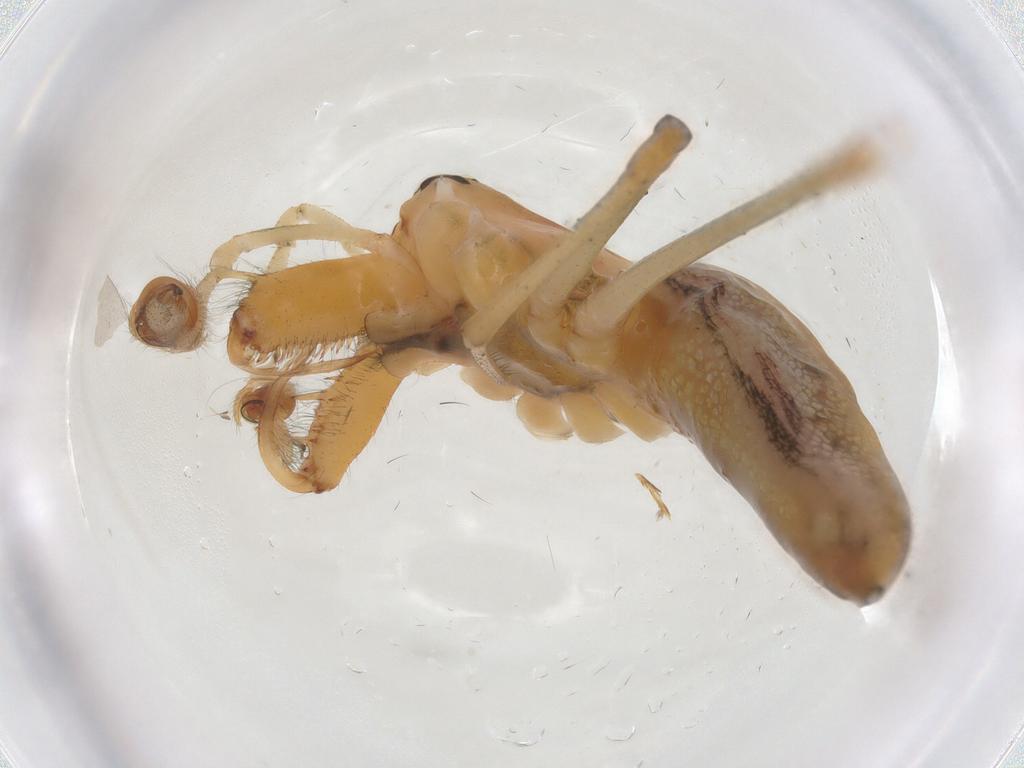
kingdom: Animalia
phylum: Arthropoda
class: Arachnida
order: Araneae
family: Tetragnathidae
